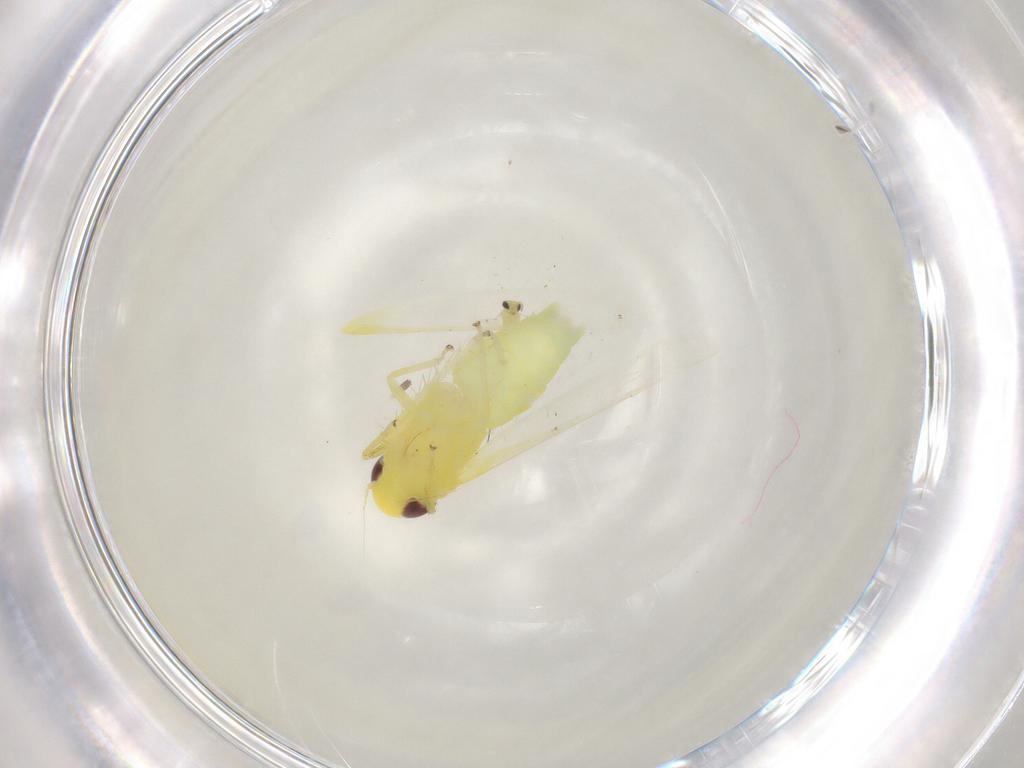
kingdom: Animalia
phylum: Arthropoda
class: Insecta
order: Hemiptera
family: Cicadellidae
